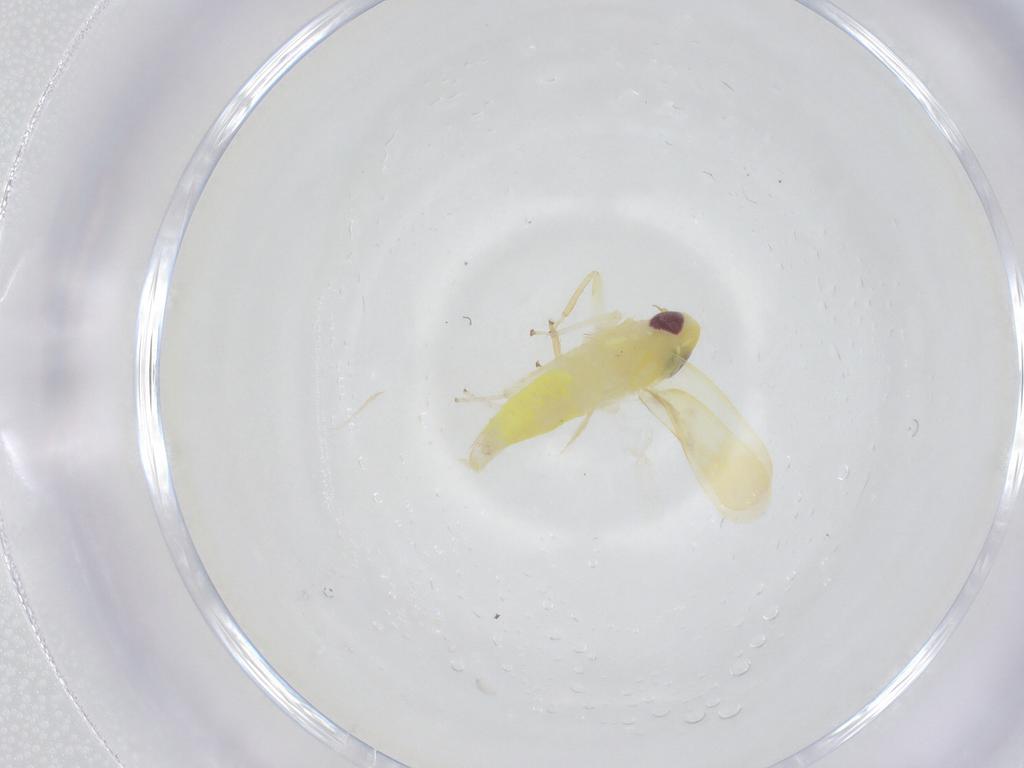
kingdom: Animalia
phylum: Arthropoda
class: Insecta
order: Hemiptera
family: Cicadellidae
